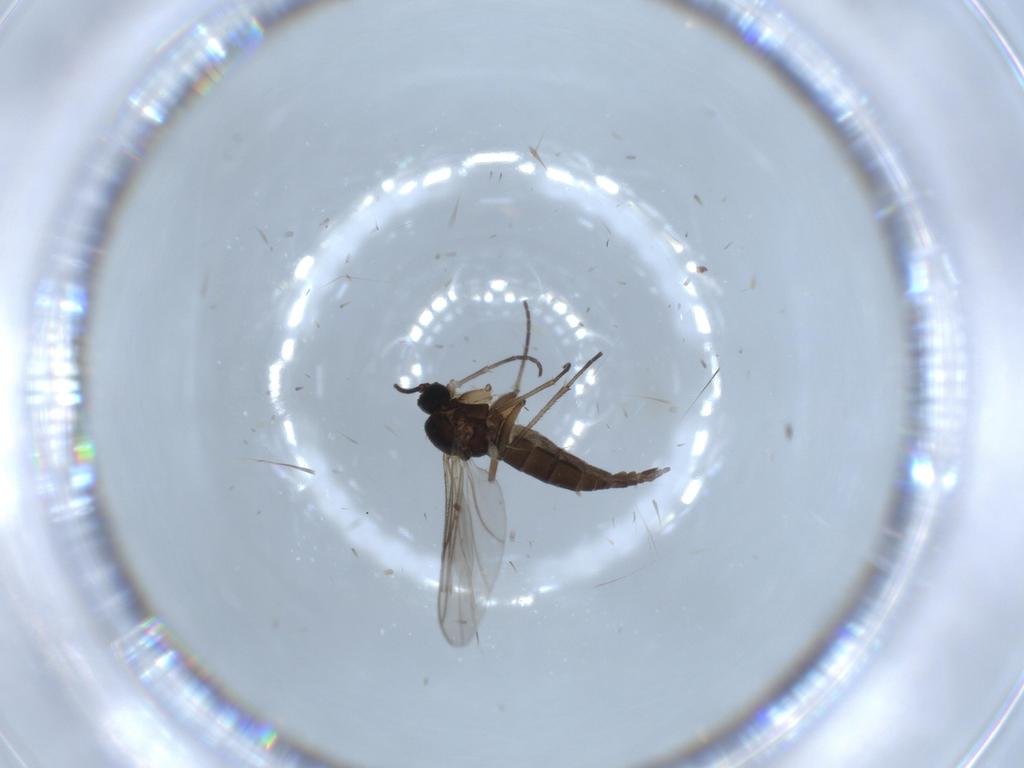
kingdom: Animalia
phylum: Arthropoda
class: Insecta
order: Diptera
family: Sciaridae
